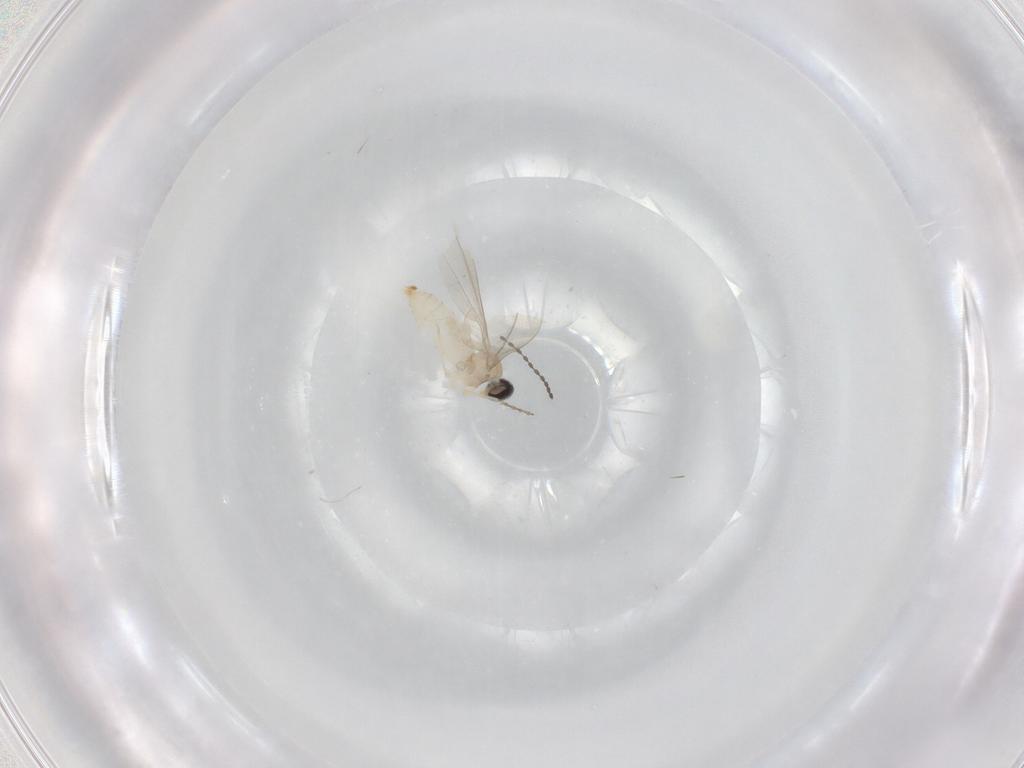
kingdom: Animalia
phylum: Arthropoda
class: Insecta
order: Diptera
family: Cecidomyiidae
